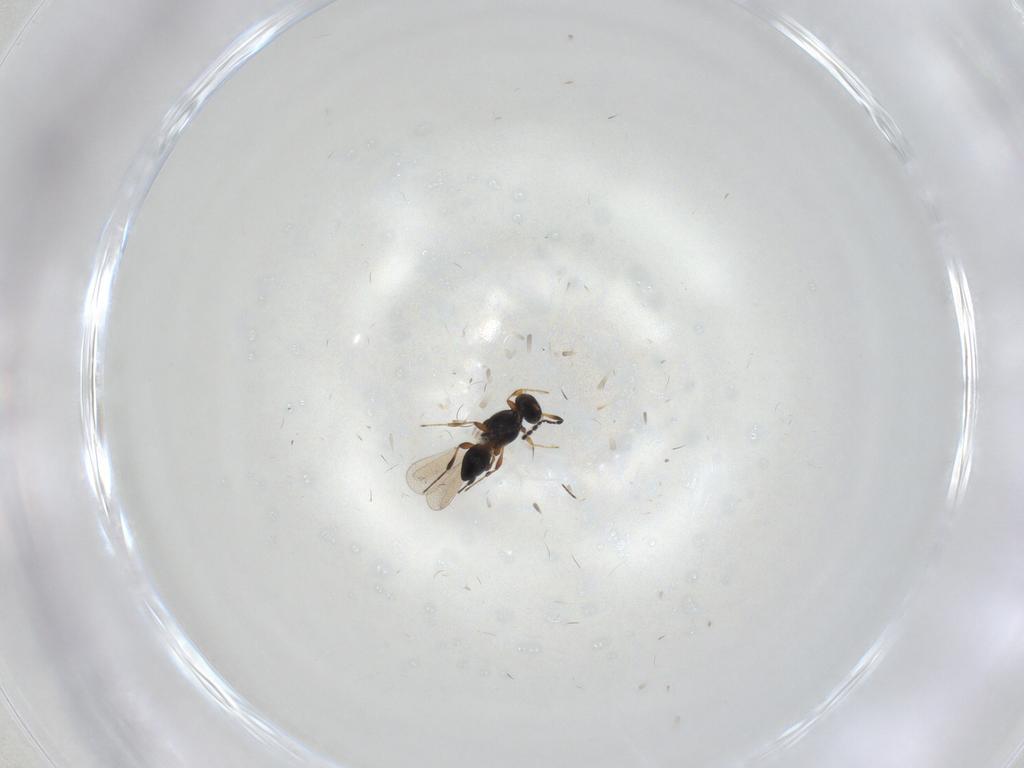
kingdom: Animalia
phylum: Arthropoda
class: Insecta
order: Hymenoptera
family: Platygastridae
